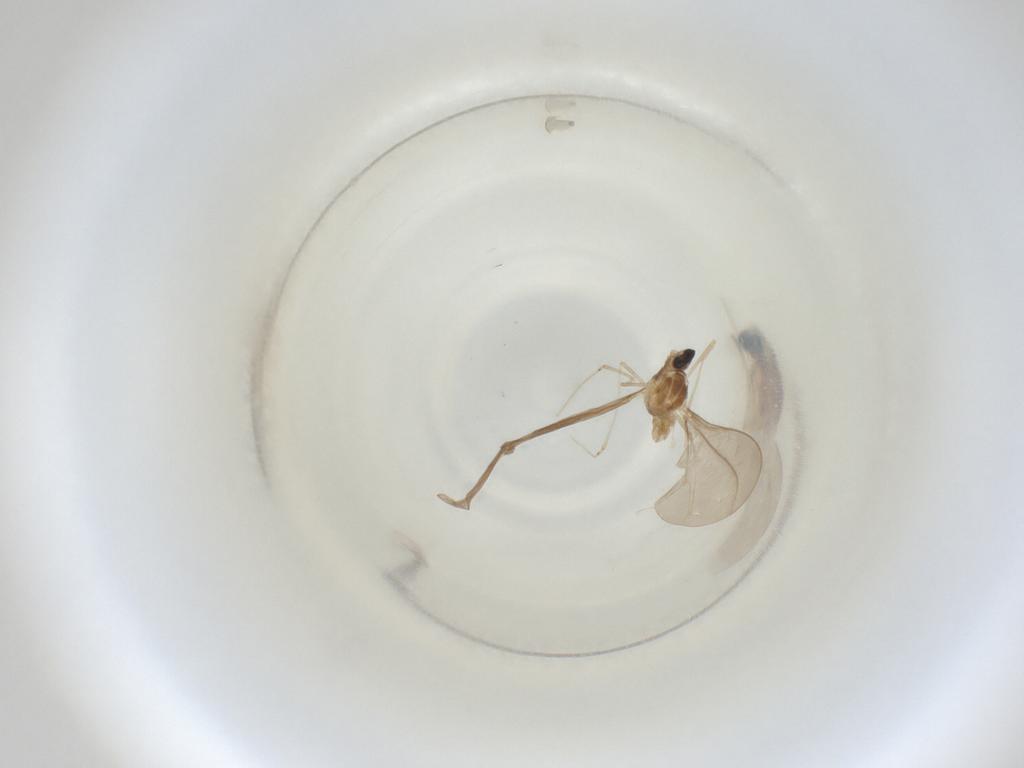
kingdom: Animalia
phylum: Arthropoda
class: Insecta
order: Diptera
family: Cecidomyiidae
